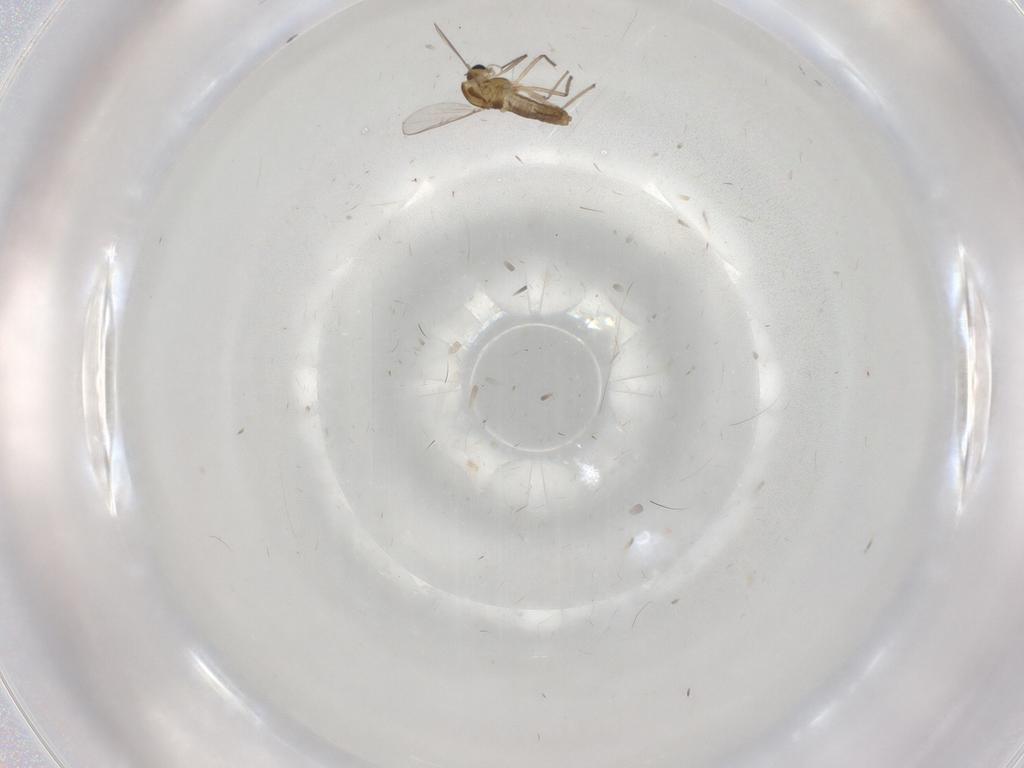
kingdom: Animalia
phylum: Arthropoda
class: Insecta
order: Diptera
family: Chironomidae
